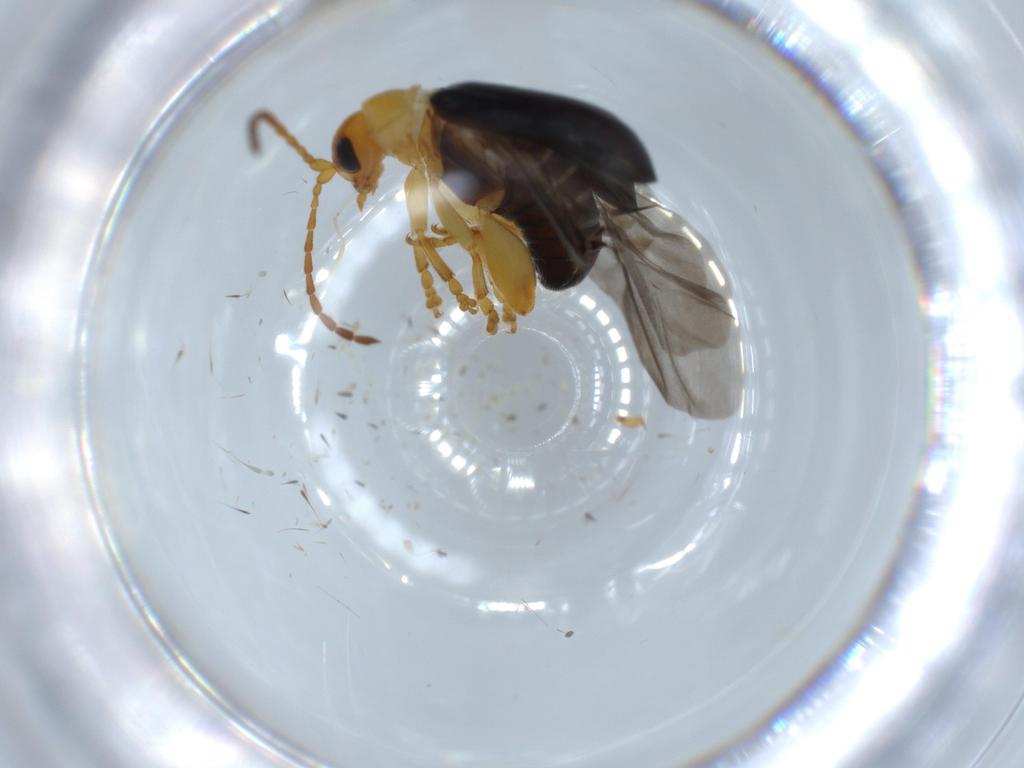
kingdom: Animalia
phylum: Arthropoda
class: Insecta
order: Coleoptera
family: Chrysomelidae
